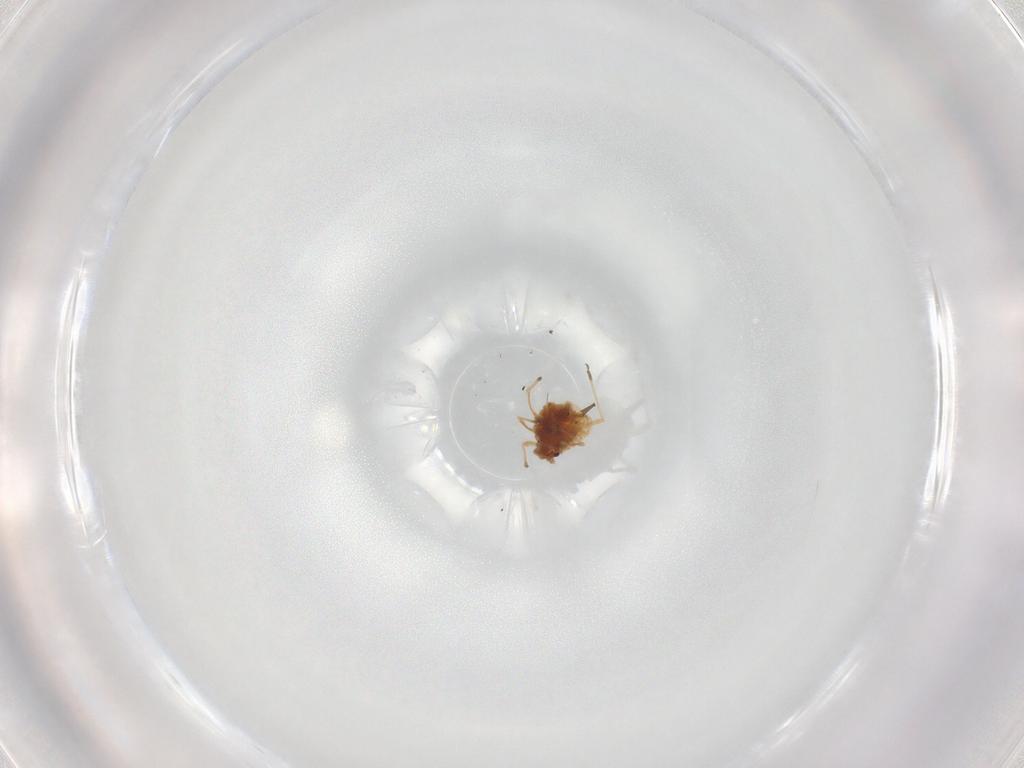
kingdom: Animalia
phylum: Arthropoda
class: Insecta
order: Hemiptera
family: Aphididae
